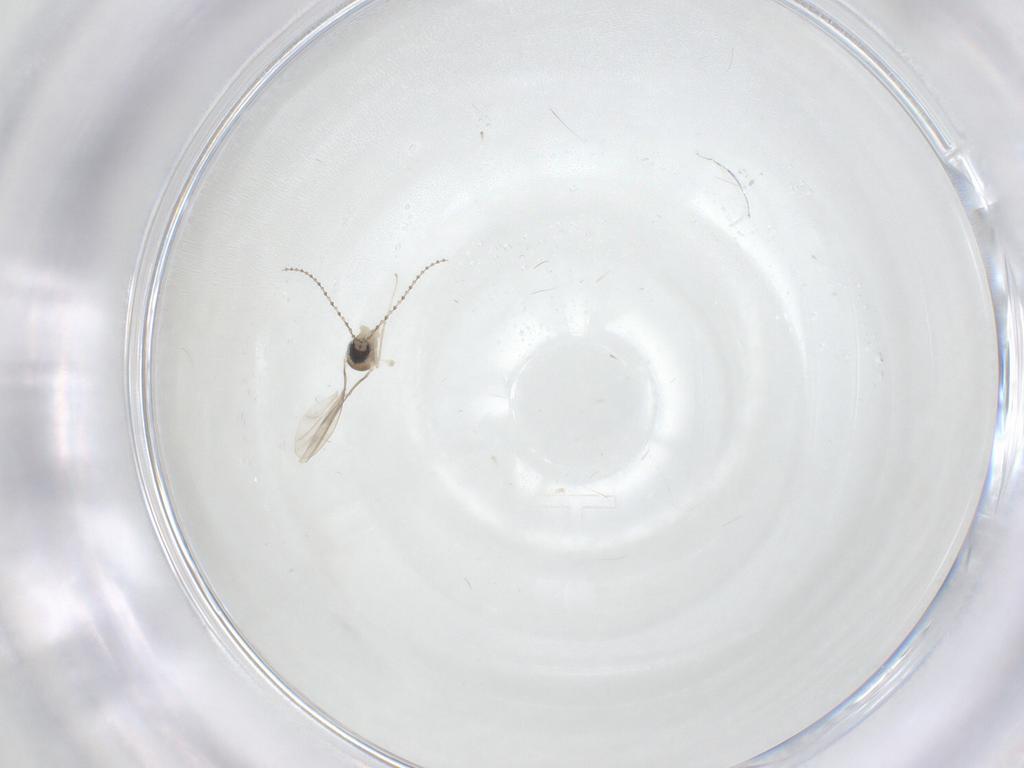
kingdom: Animalia
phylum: Arthropoda
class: Insecta
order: Diptera
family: Cecidomyiidae
